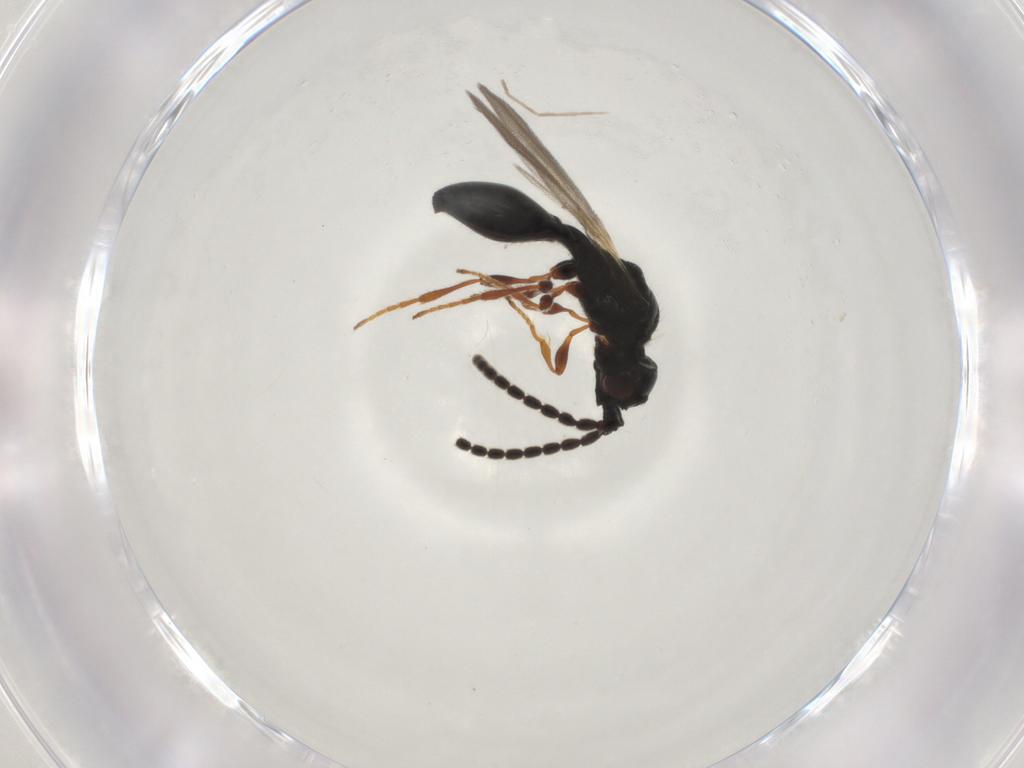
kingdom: Animalia
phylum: Arthropoda
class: Insecta
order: Hymenoptera
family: Diapriidae
